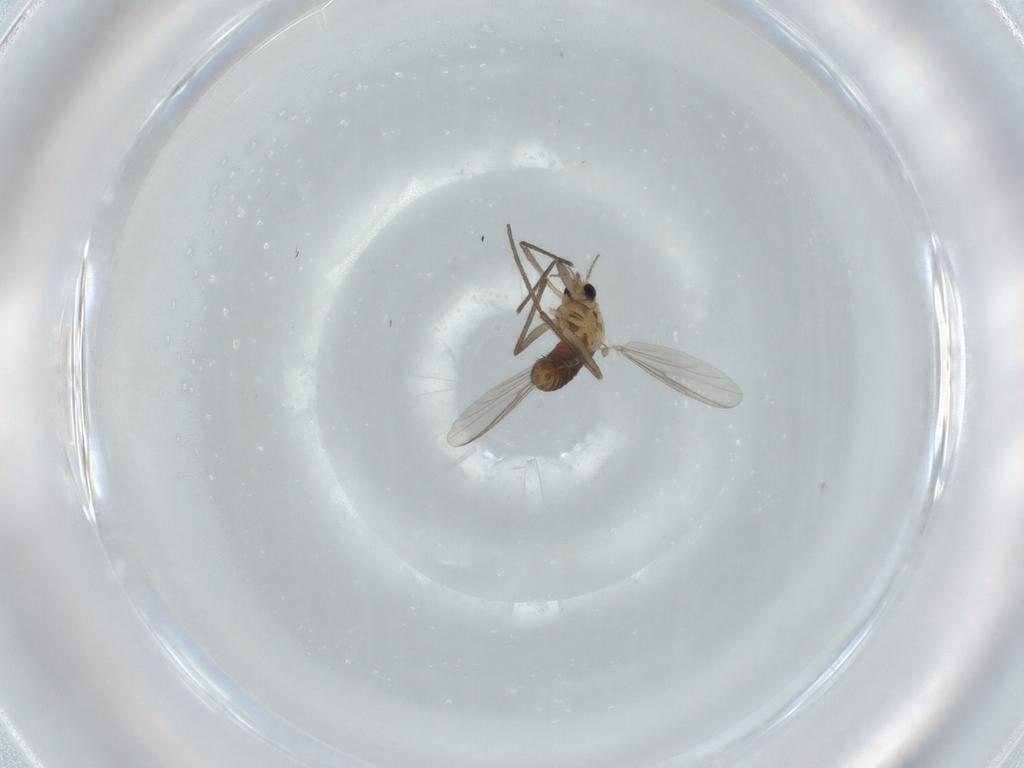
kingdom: Animalia
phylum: Arthropoda
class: Insecta
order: Diptera
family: Chironomidae
